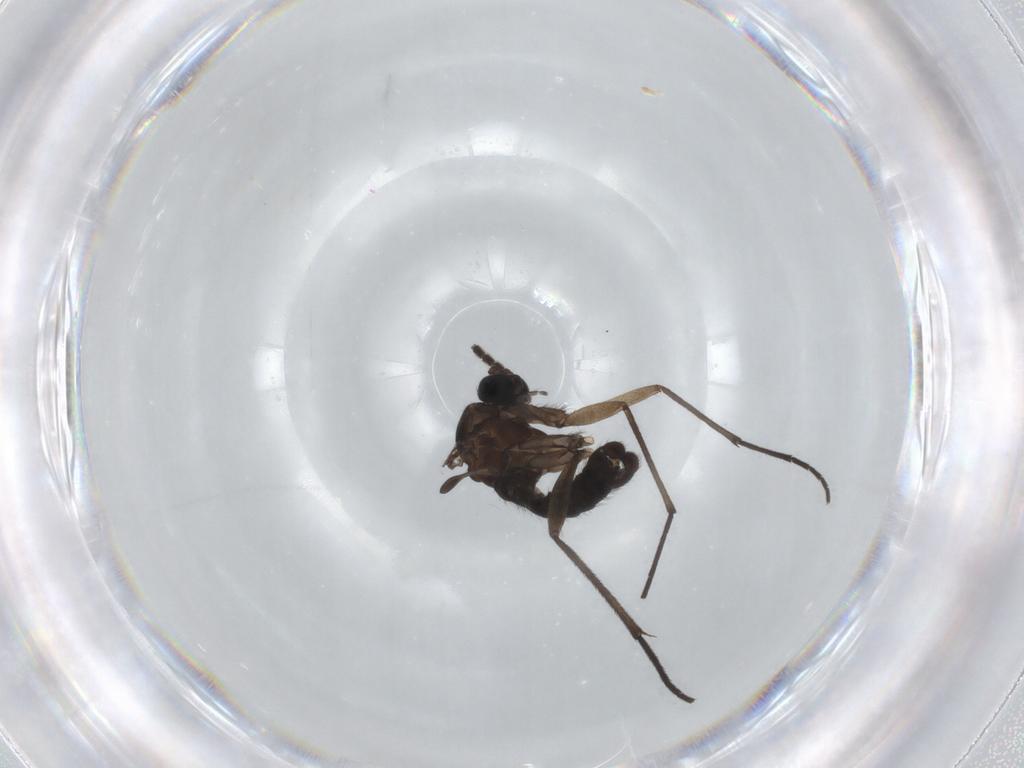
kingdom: Animalia
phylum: Arthropoda
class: Insecta
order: Diptera
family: Sciaridae
